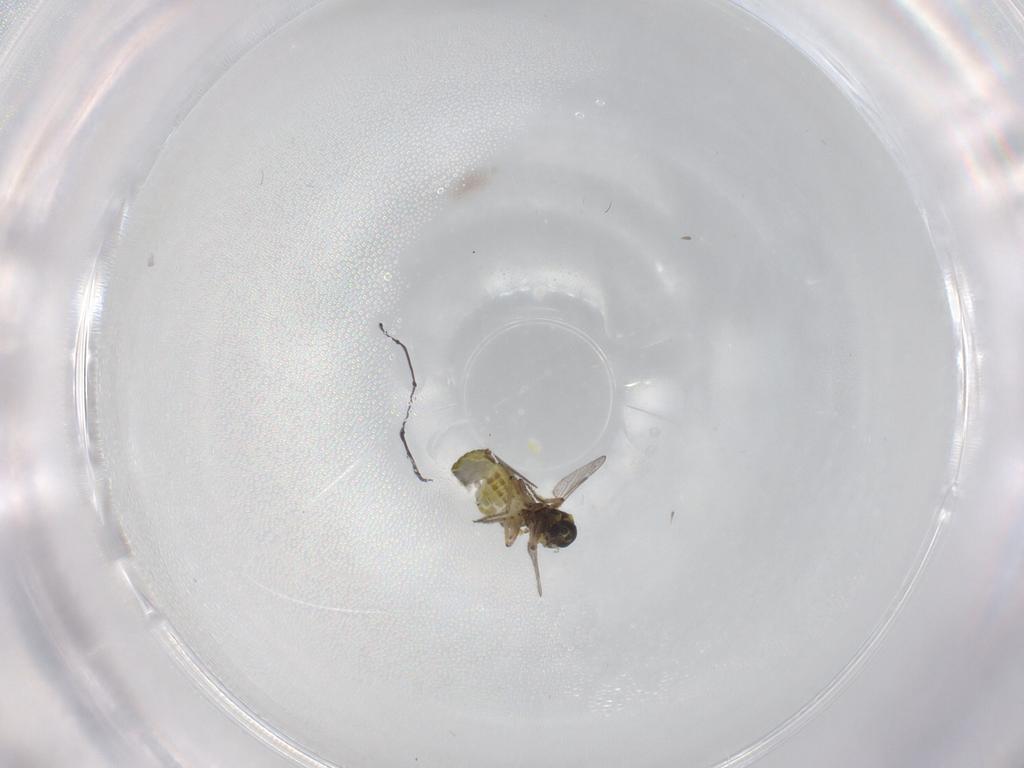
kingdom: Animalia
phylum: Arthropoda
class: Insecta
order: Diptera
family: Ceratopogonidae
